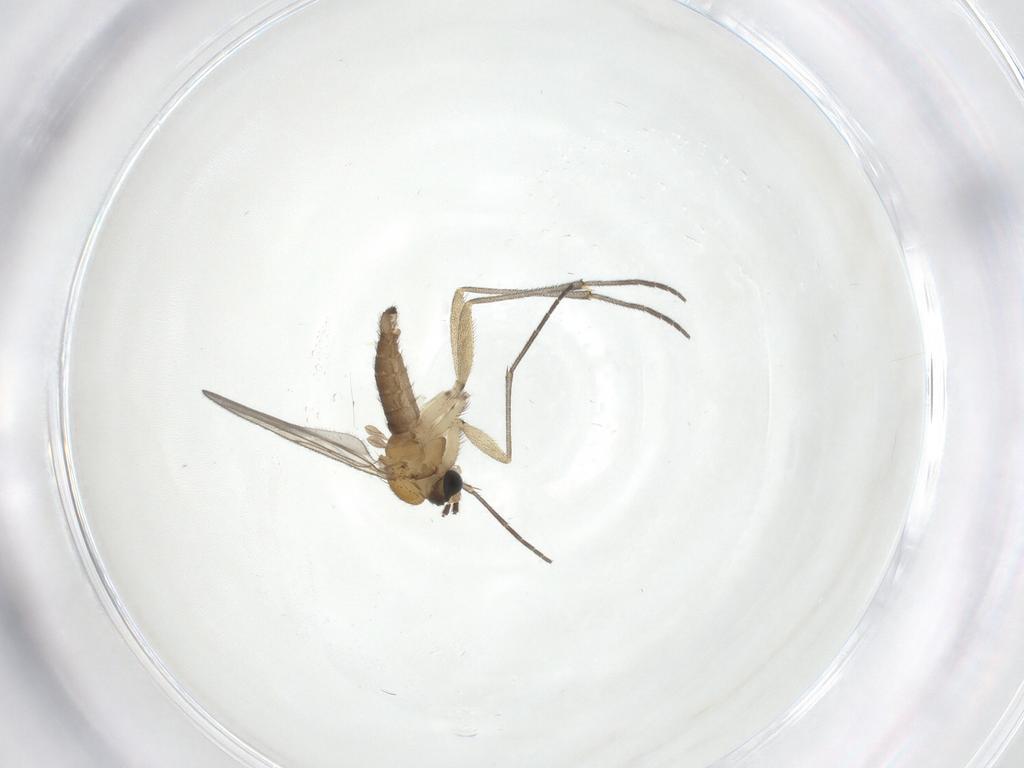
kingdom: Animalia
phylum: Arthropoda
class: Insecta
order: Diptera
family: Sciaridae
